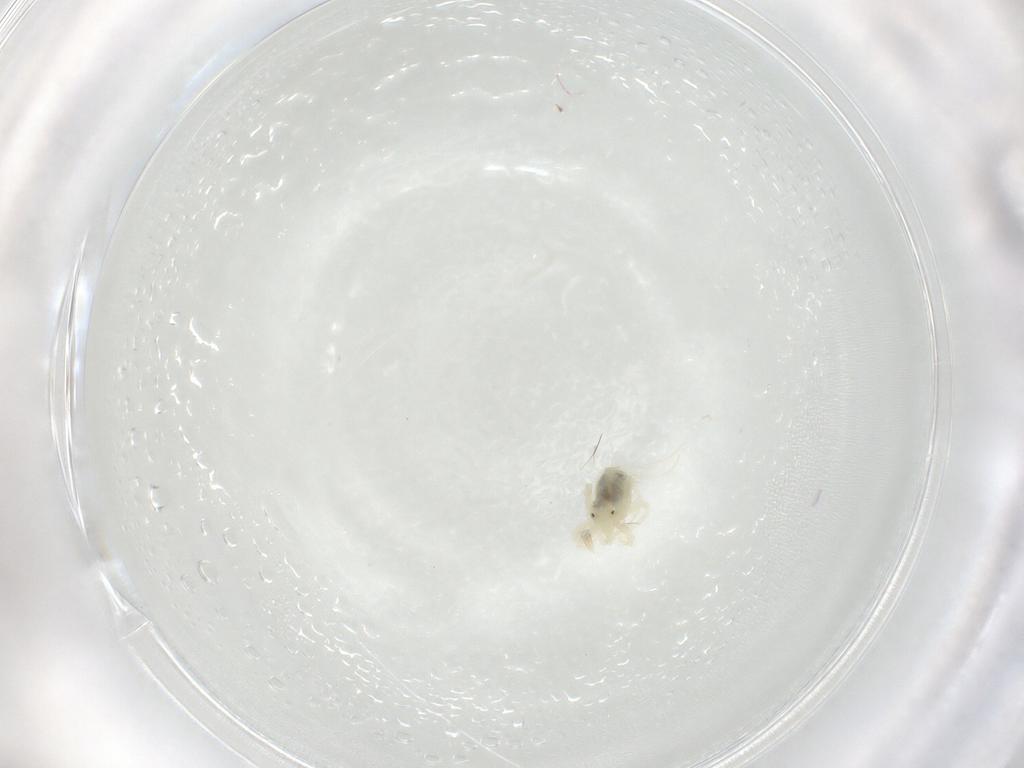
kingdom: Animalia
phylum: Arthropoda
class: Arachnida
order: Trombidiformes
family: Anystidae
